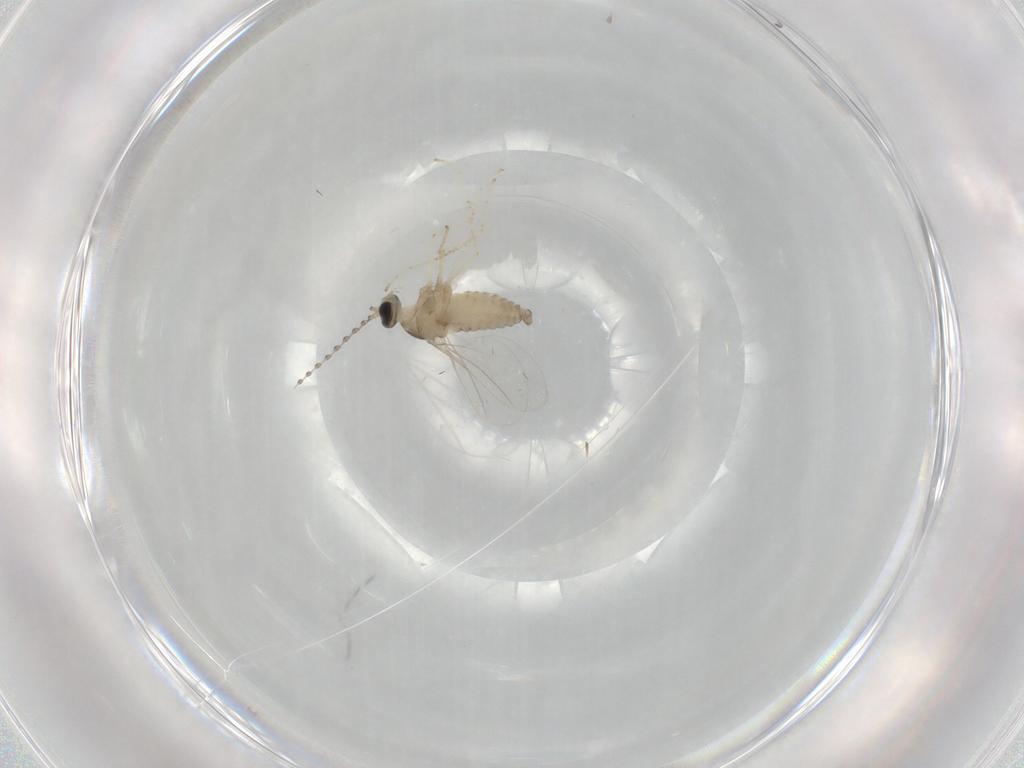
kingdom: Animalia
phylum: Arthropoda
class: Insecta
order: Diptera
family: Cecidomyiidae
